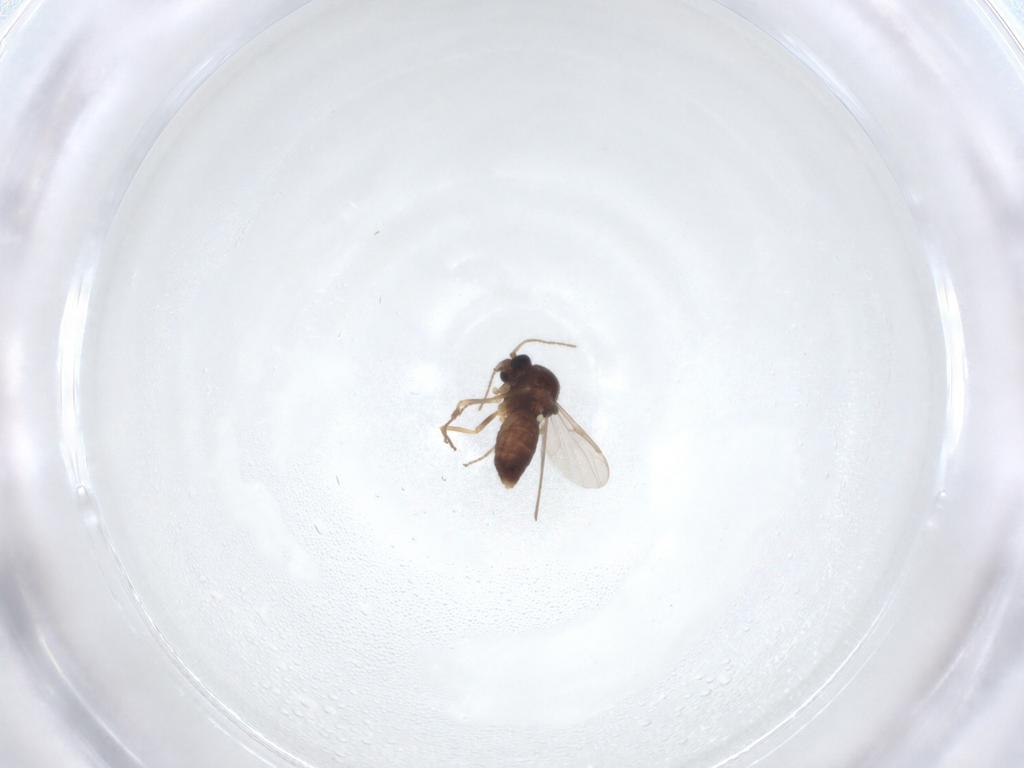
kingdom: Animalia
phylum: Arthropoda
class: Insecta
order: Diptera
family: Ceratopogonidae
